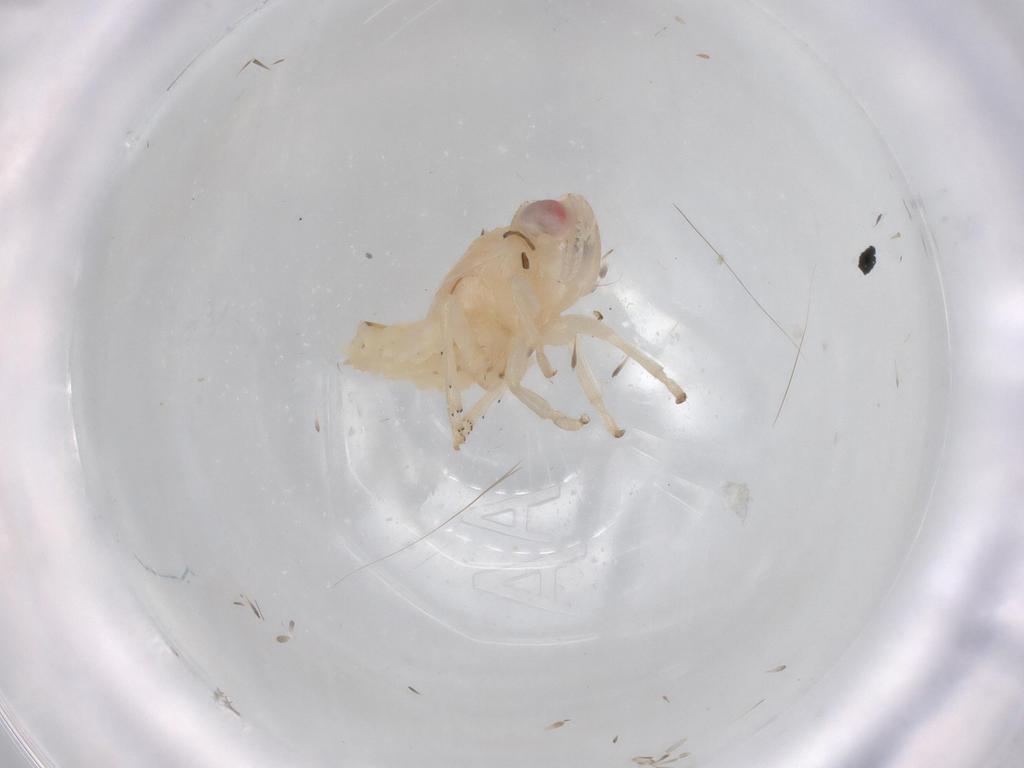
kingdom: Animalia
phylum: Arthropoda
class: Insecta
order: Hemiptera
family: Nogodinidae
